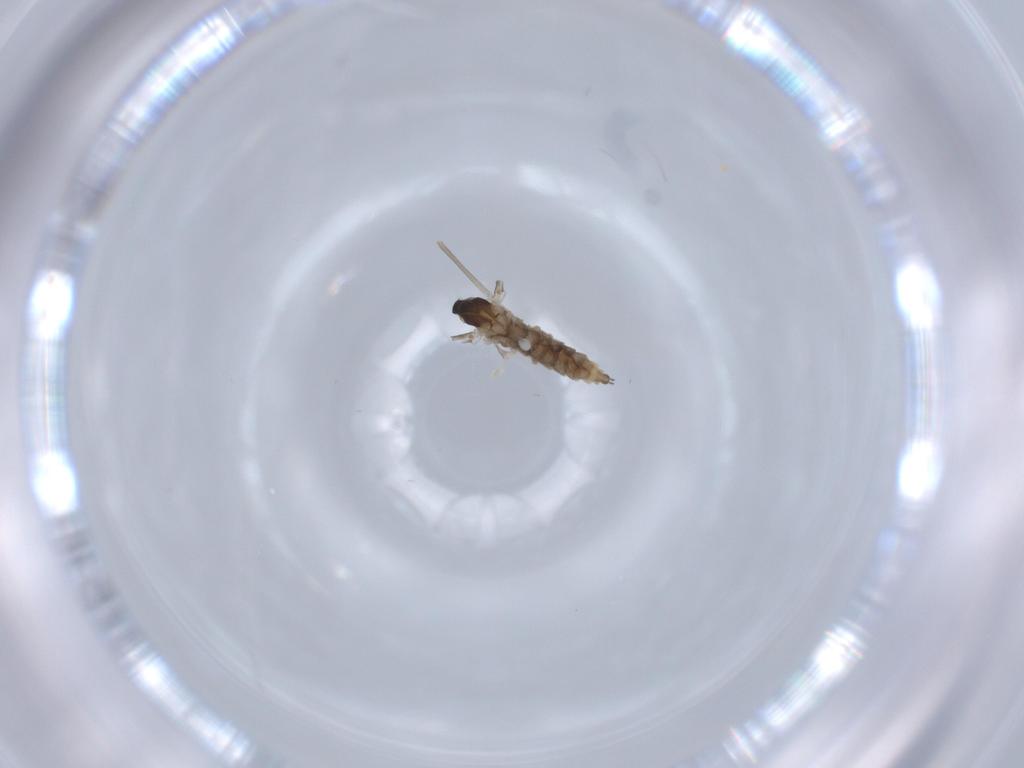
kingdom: Animalia
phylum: Arthropoda
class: Insecta
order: Diptera
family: Cecidomyiidae
